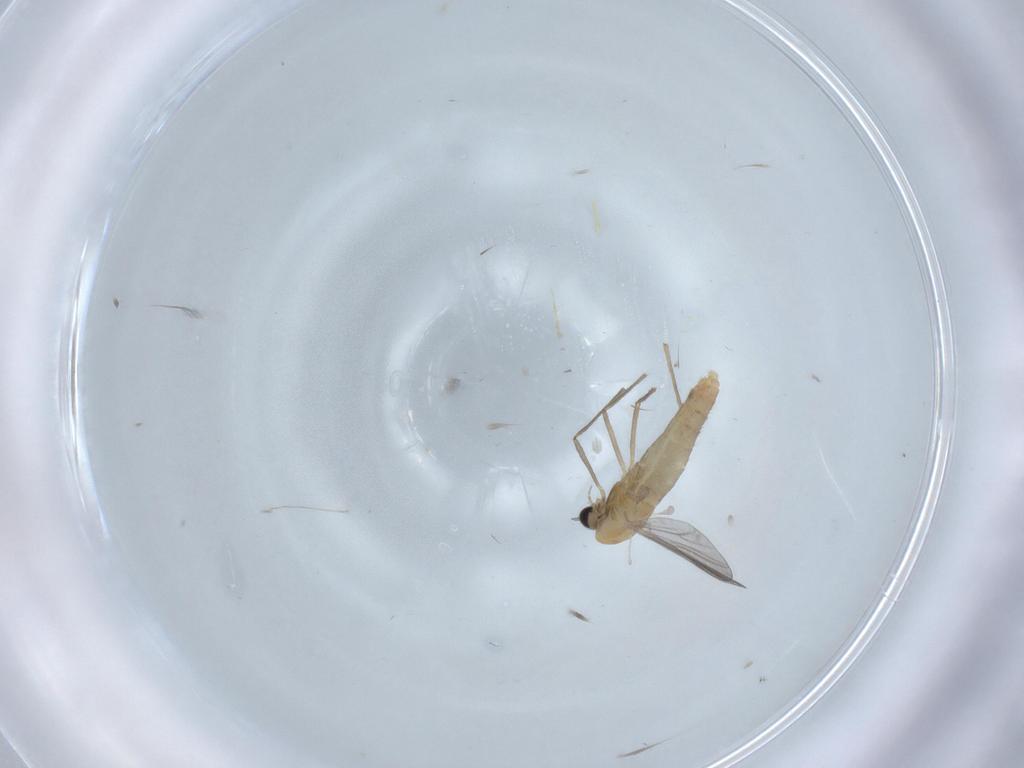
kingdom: Animalia
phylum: Arthropoda
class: Insecta
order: Diptera
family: Chironomidae
